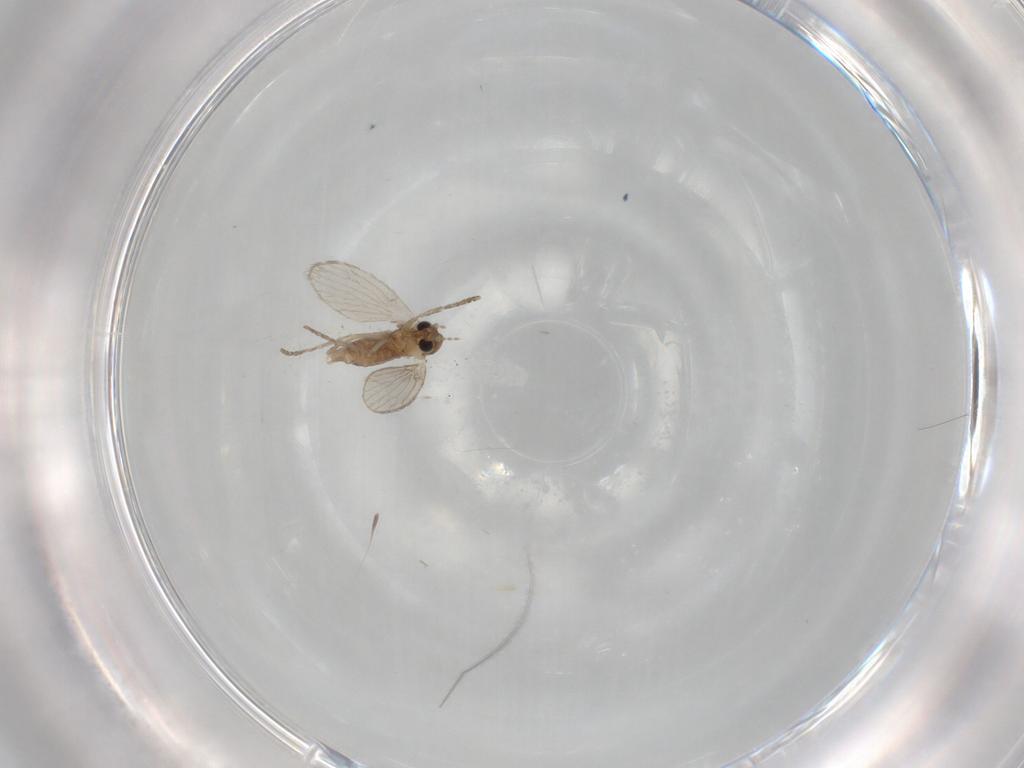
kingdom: Animalia
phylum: Arthropoda
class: Insecta
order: Diptera
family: Psychodidae
